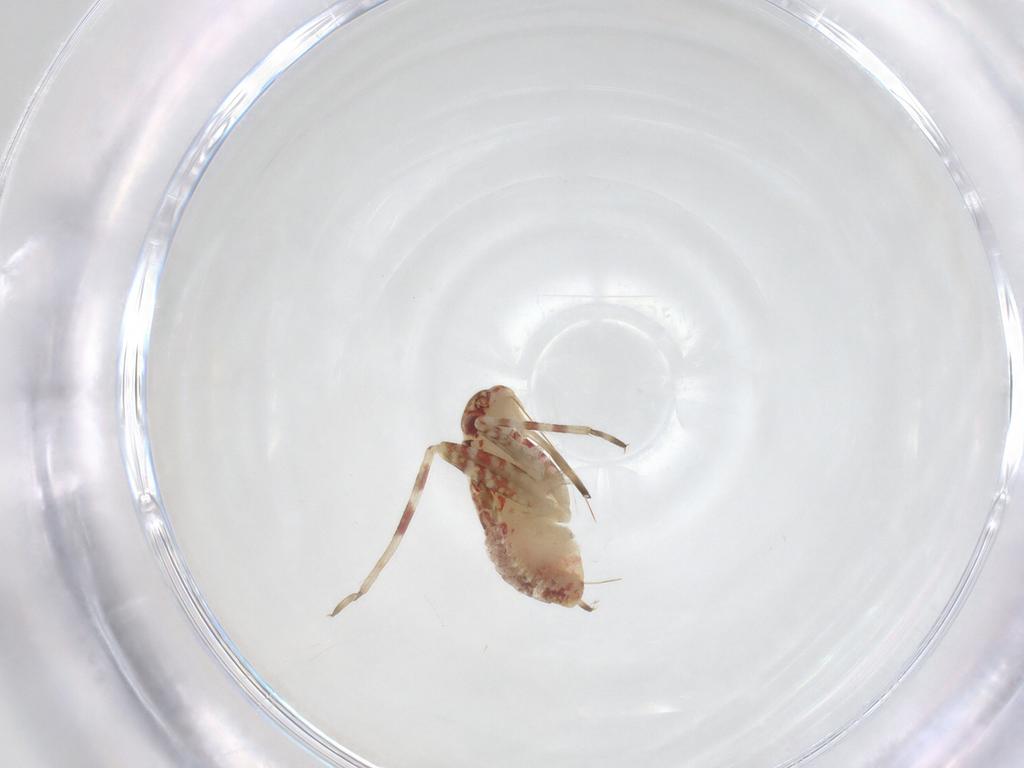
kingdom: Animalia
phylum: Arthropoda
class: Insecta
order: Hemiptera
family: Miridae
